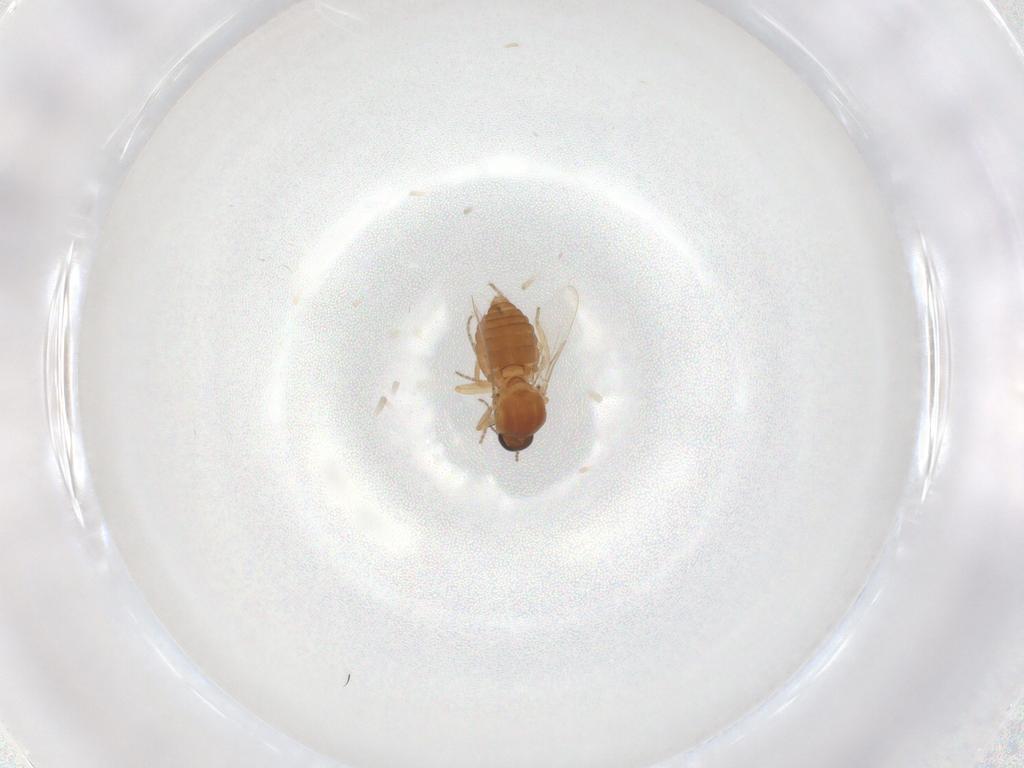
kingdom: Animalia
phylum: Arthropoda
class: Insecta
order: Diptera
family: Ceratopogonidae
